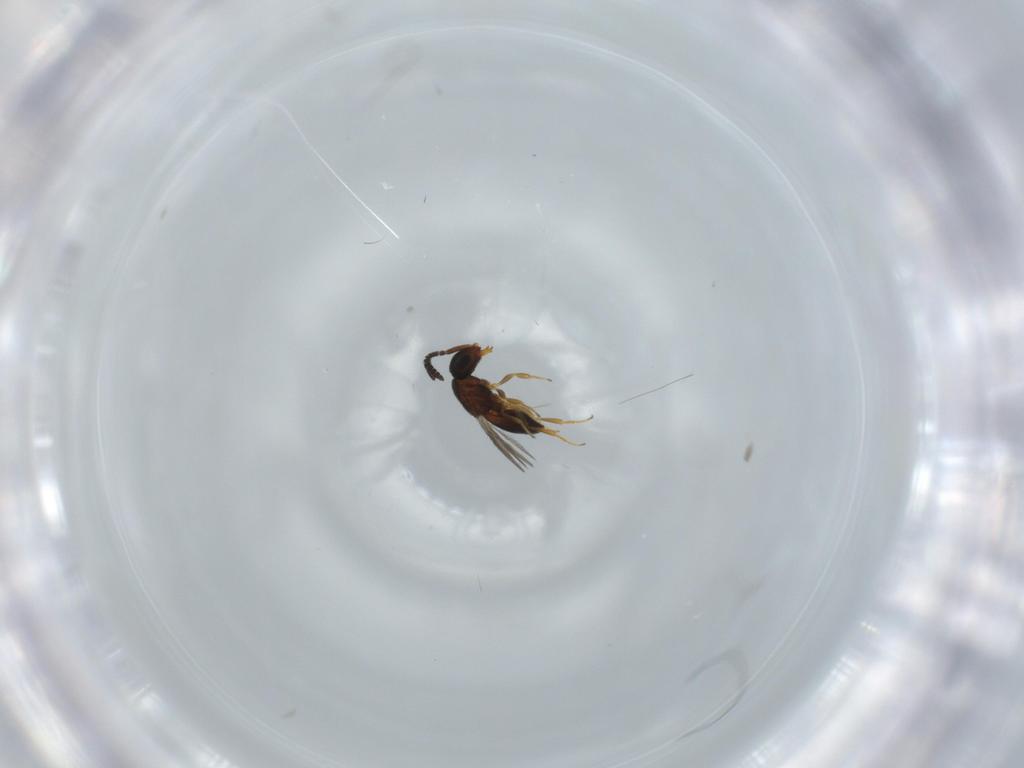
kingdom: Animalia
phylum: Arthropoda
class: Insecta
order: Hymenoptera
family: Scelionidae
